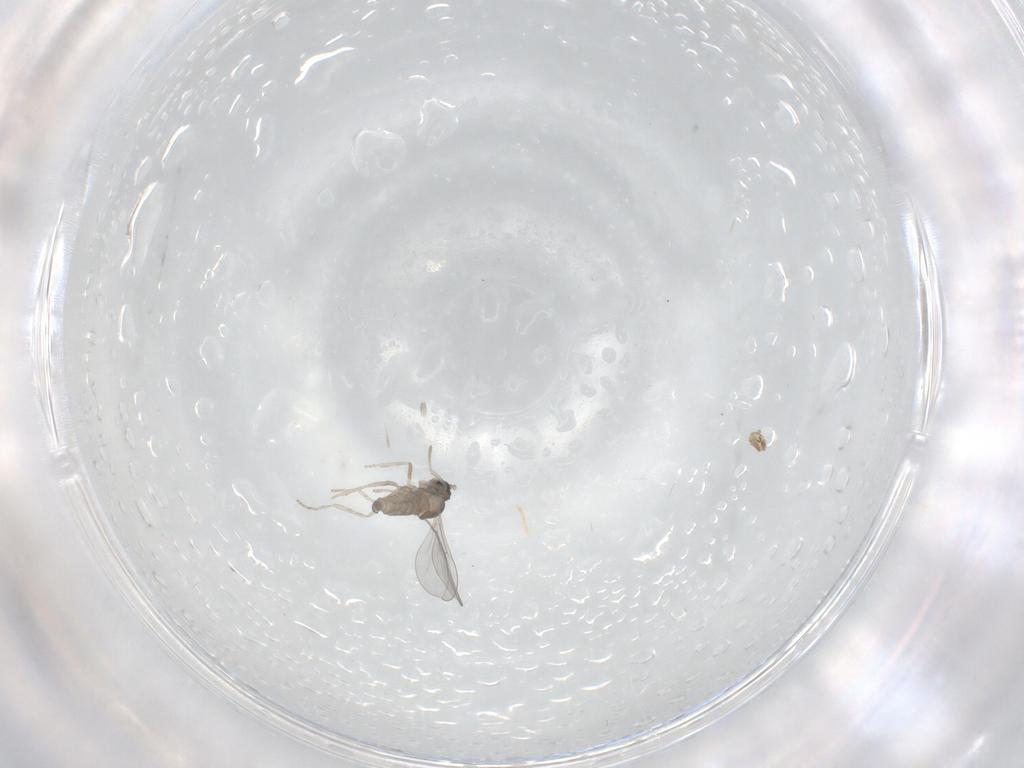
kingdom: Animalia
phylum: Arthropoda
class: Insecta
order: Diptera
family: Cecidomyiidae
